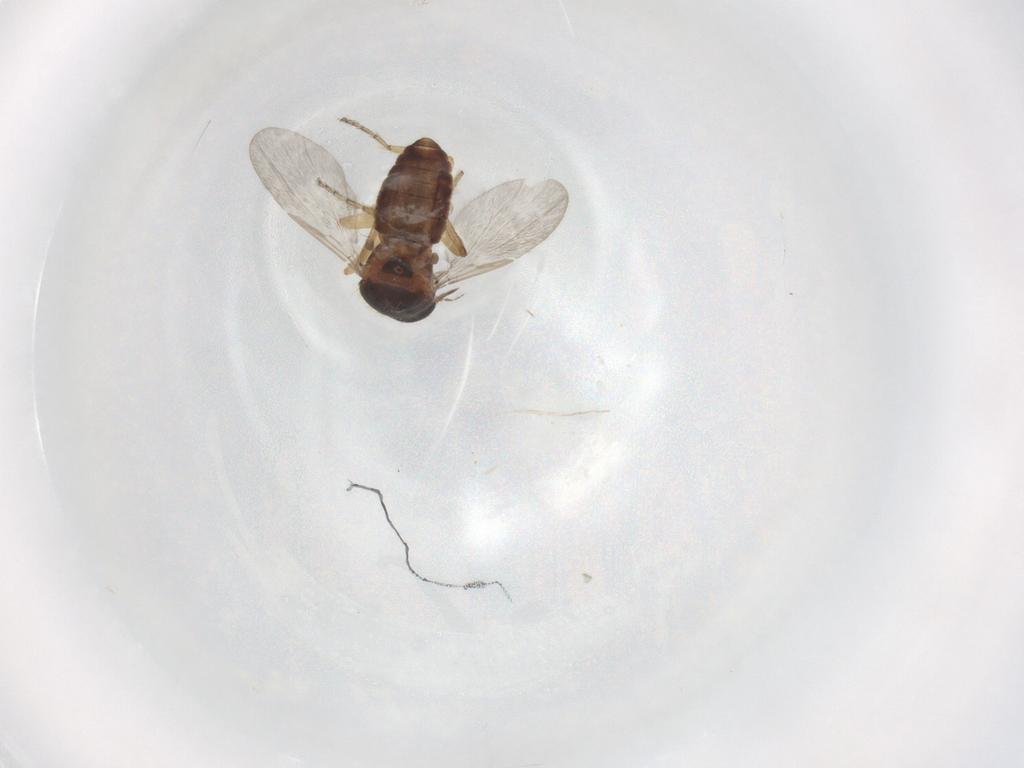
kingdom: Animalia
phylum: Arthropoda
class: Insecta
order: Diptera
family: Ceratopogonidae
